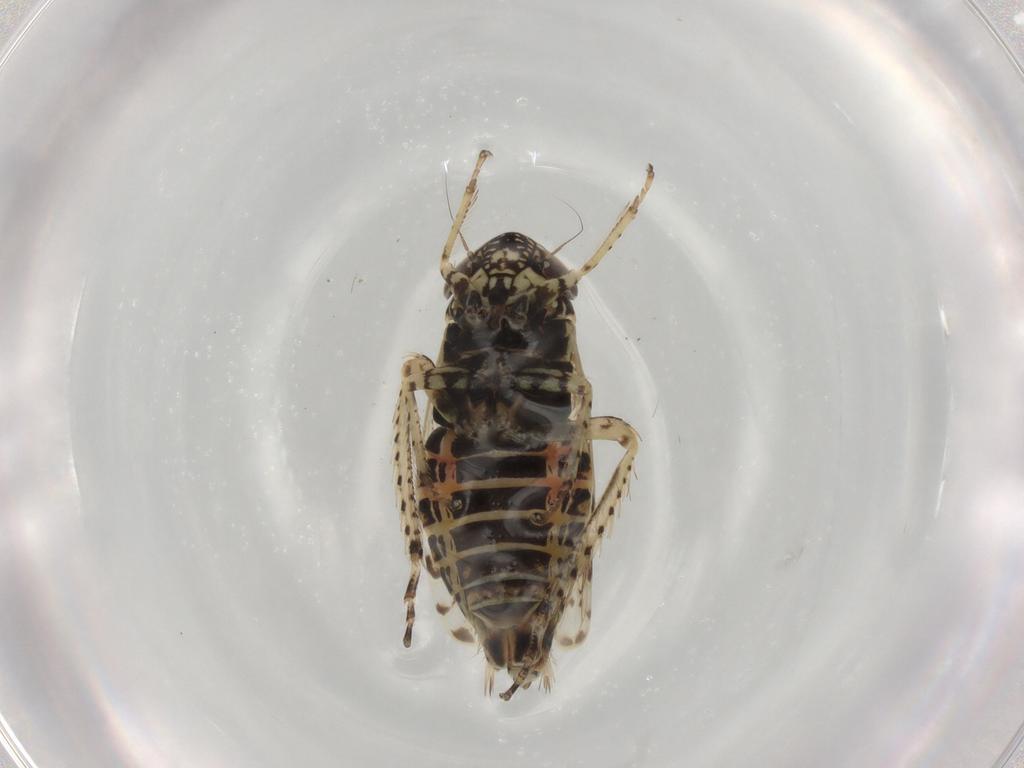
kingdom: Animalia
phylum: Arthropoda
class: Insecta
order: Hemiptera
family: Cicadellidae
